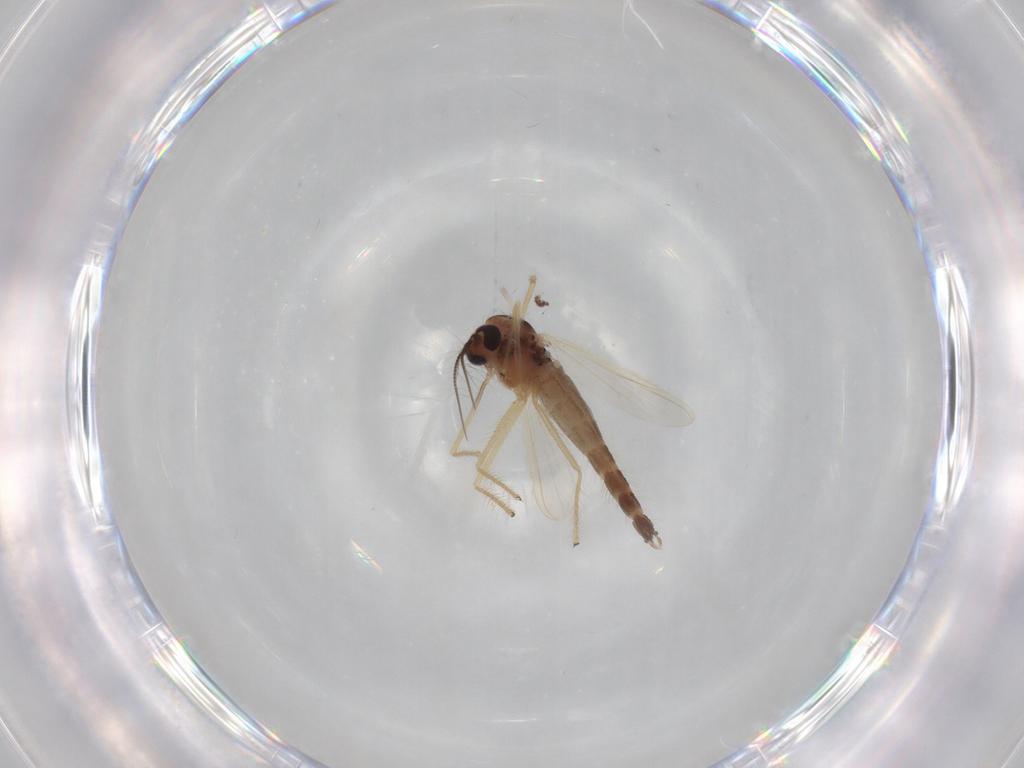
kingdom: Animalia
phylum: Arthropoda
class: Insecta
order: Diptera
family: Chironomidae
